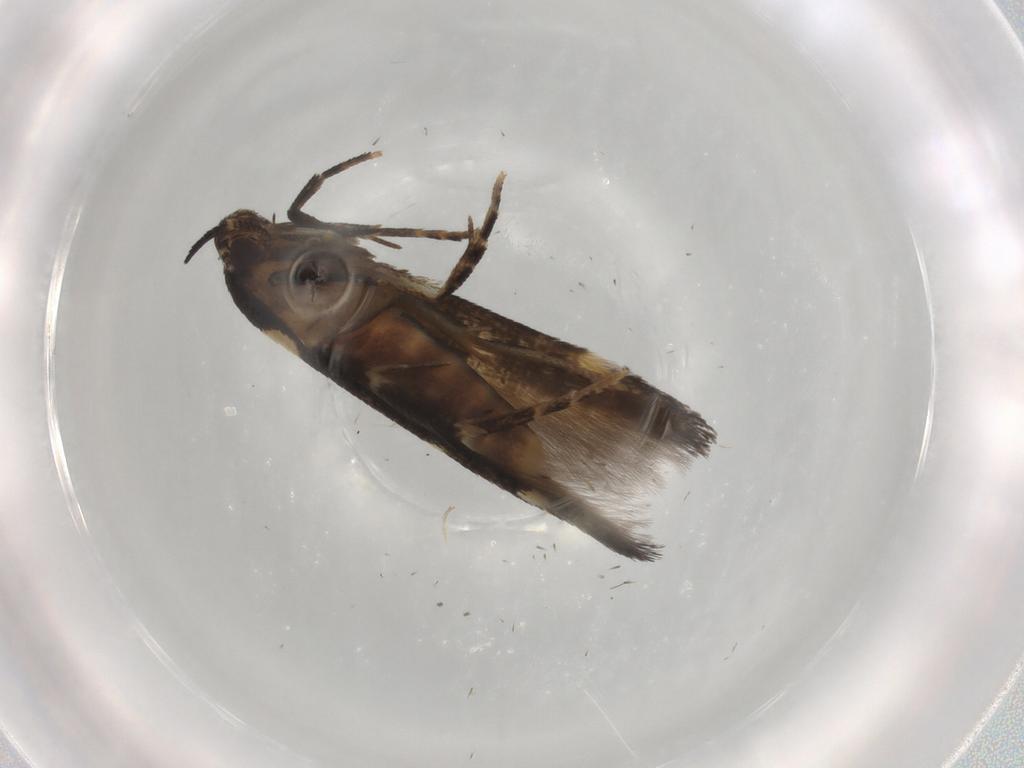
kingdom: Animalia
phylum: Arthropoda
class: Insecta
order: Lepidoptera
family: Cosmopterigidae
